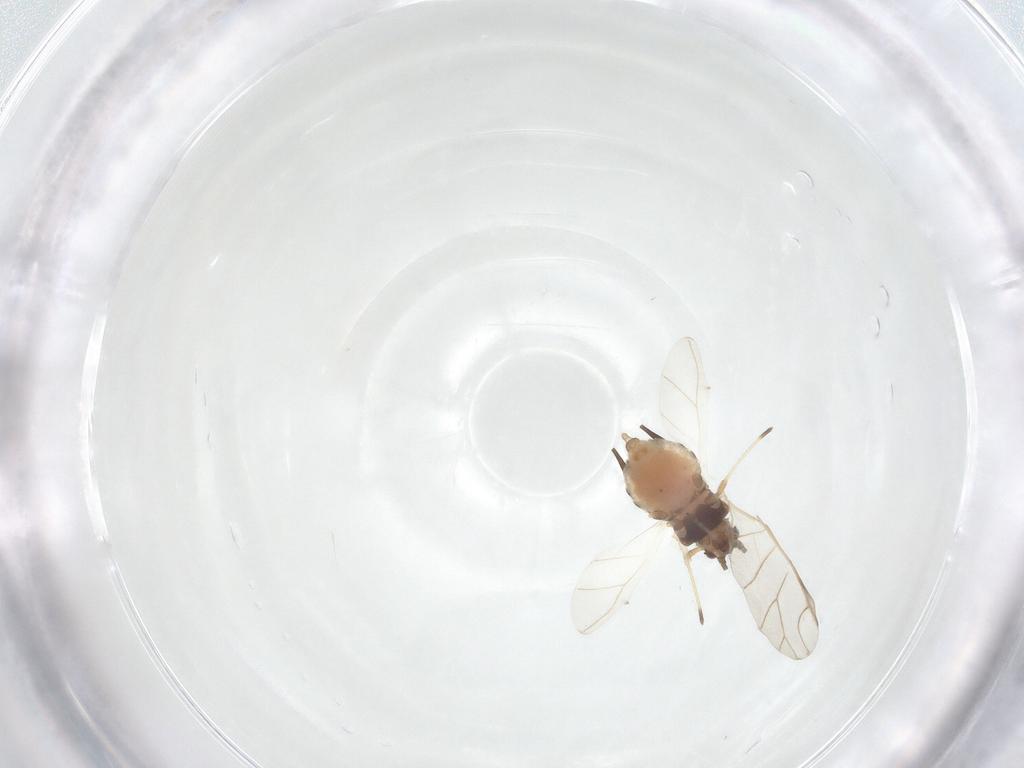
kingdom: Animalia
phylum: Arthropoda
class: Insecta
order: Hemiptera
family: Aphididae
